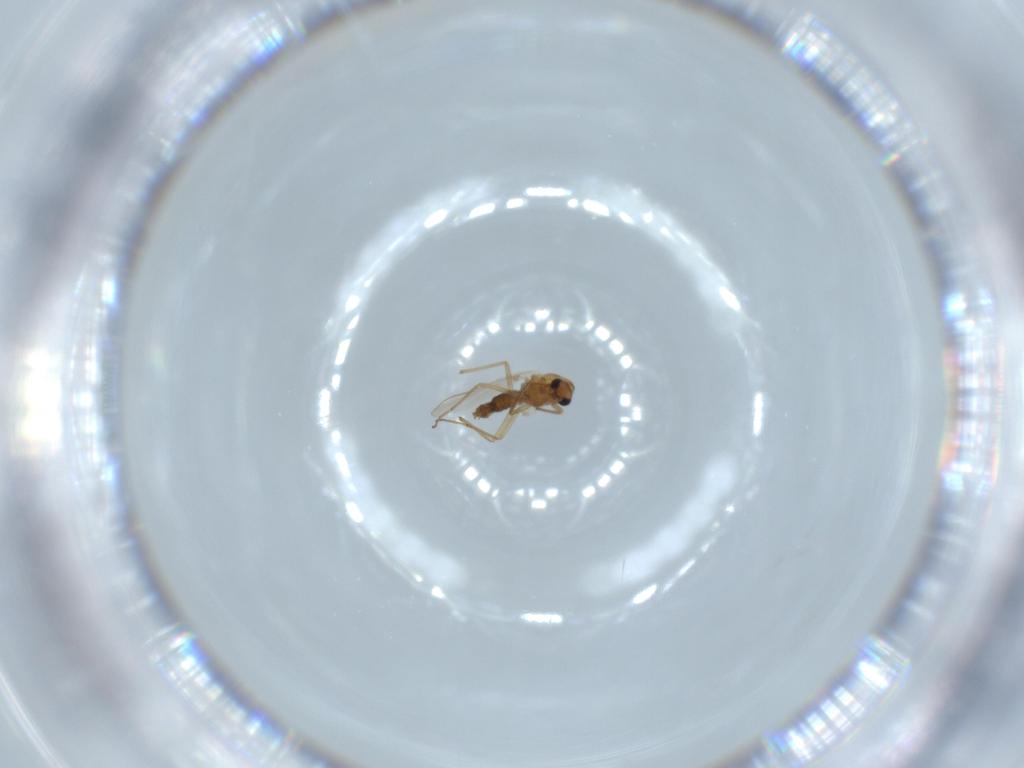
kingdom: Animalia
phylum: Arthropoda
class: Insecta
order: Diptera
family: Chironomidae
